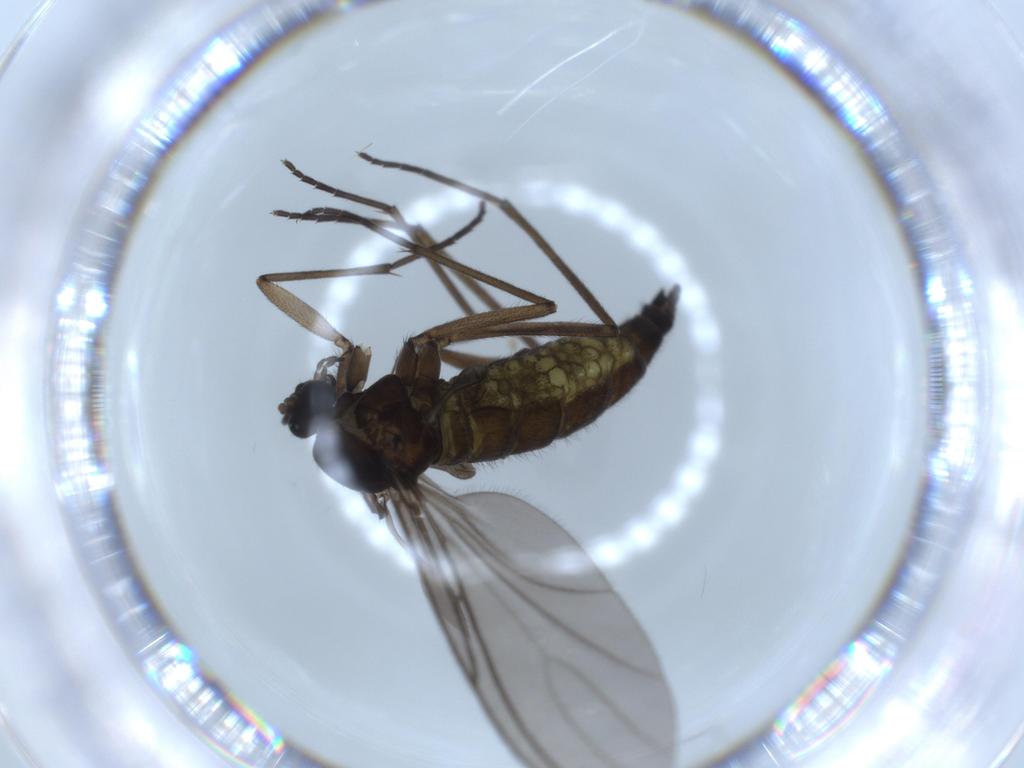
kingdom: Animalia
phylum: Arthropoda
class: Insecta
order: Diptera
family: Sciaridae
